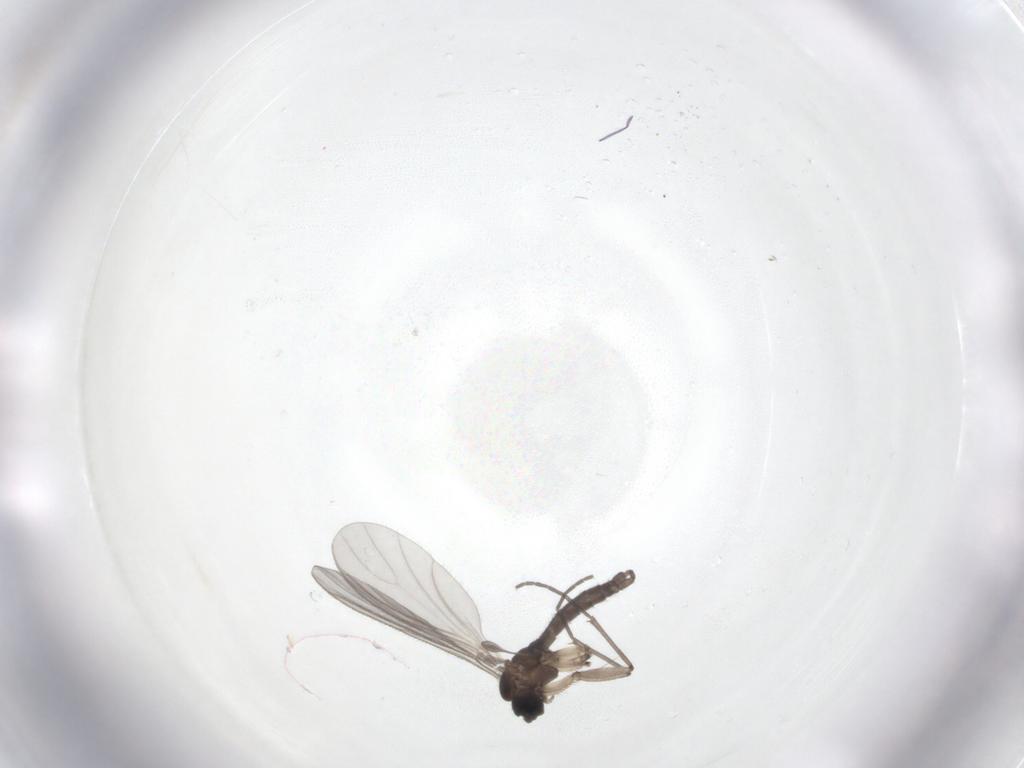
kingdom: Animalia
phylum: Arthropoda
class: Insecta
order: Diptera
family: Sciaridae
